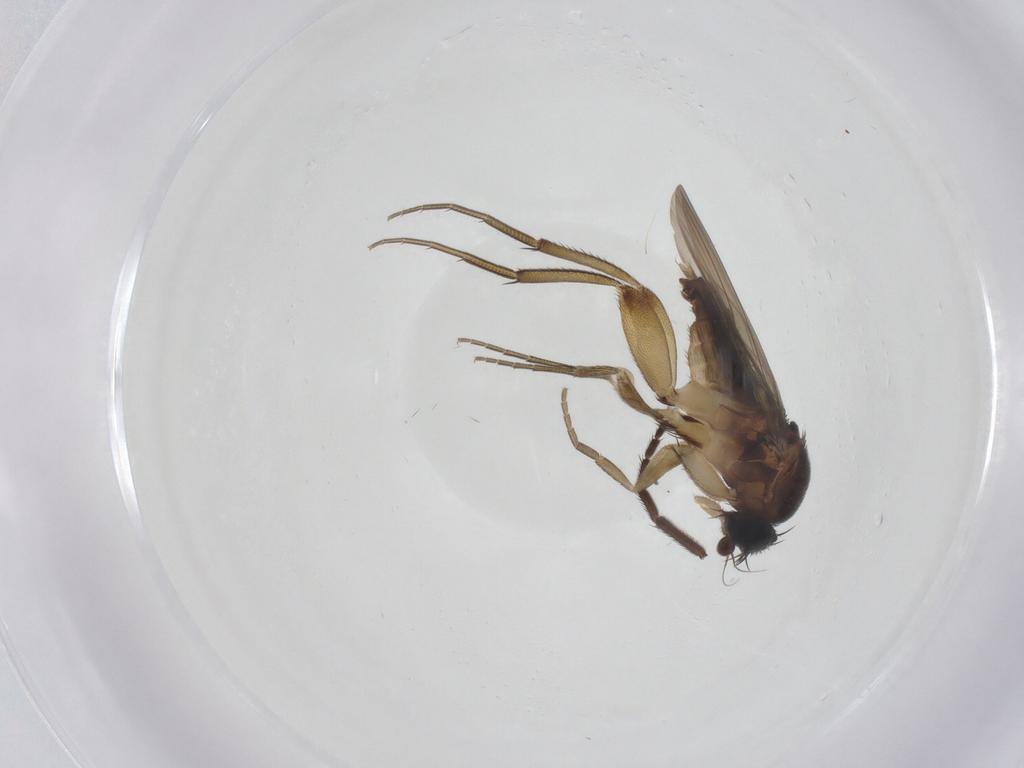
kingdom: Animalia
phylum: Arthropoda
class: Insecta
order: Diptera
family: Phoridae
